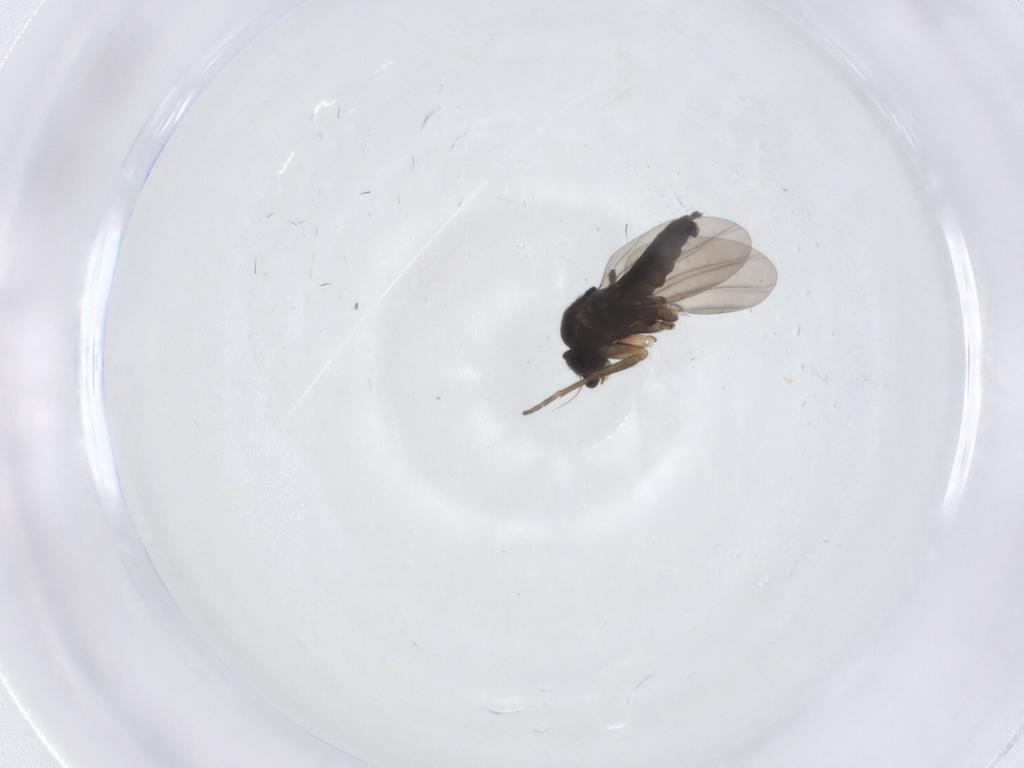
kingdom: Animalia
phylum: Arthropoda
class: Insecta
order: Diptera
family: Phoridae
